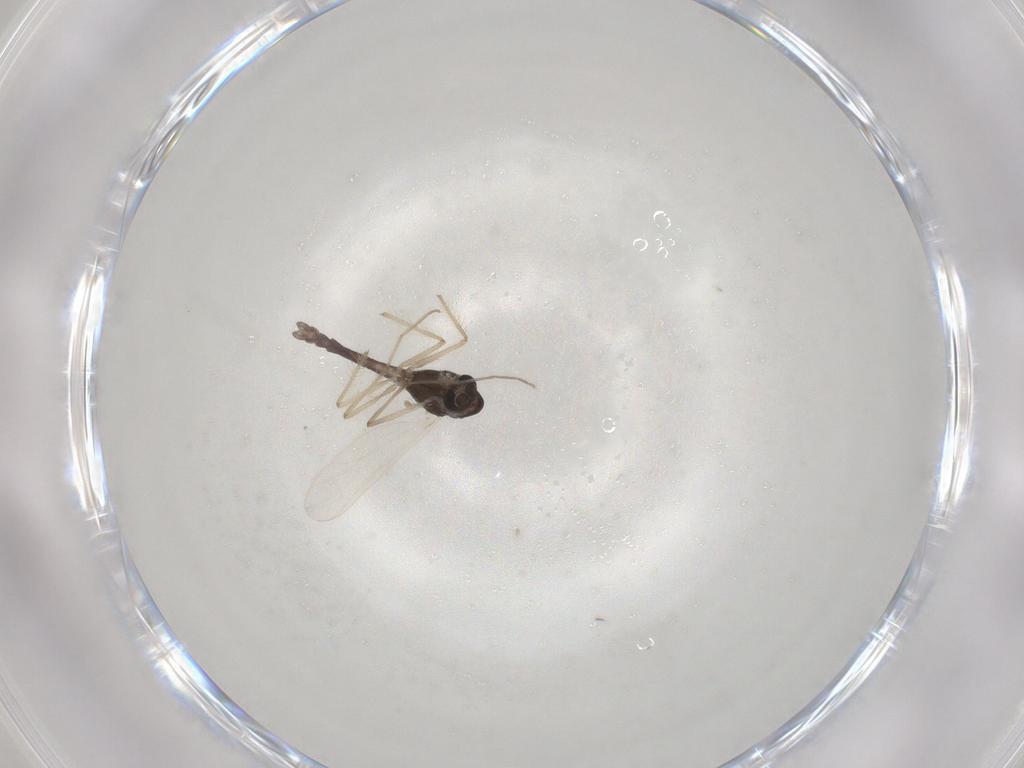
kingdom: Animalia
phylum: Arthropoda
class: Insecta
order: Diptera
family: Chironomidae
